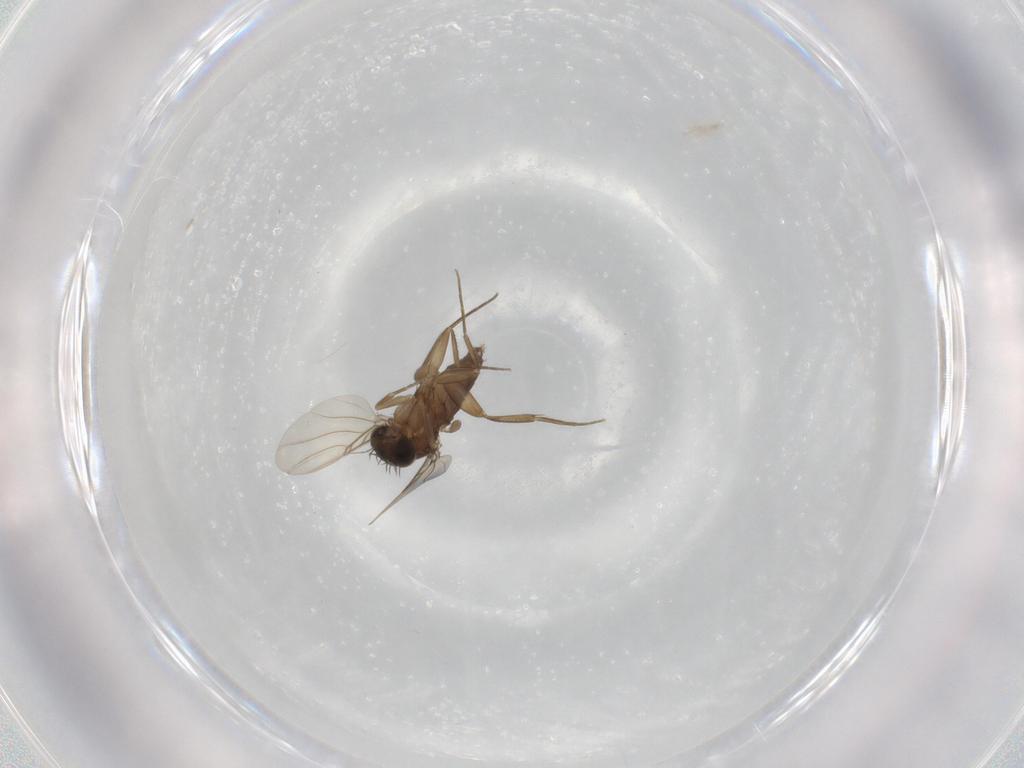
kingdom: Animalia
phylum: Arthropoda
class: Insecta
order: Diptera
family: Phoridae
